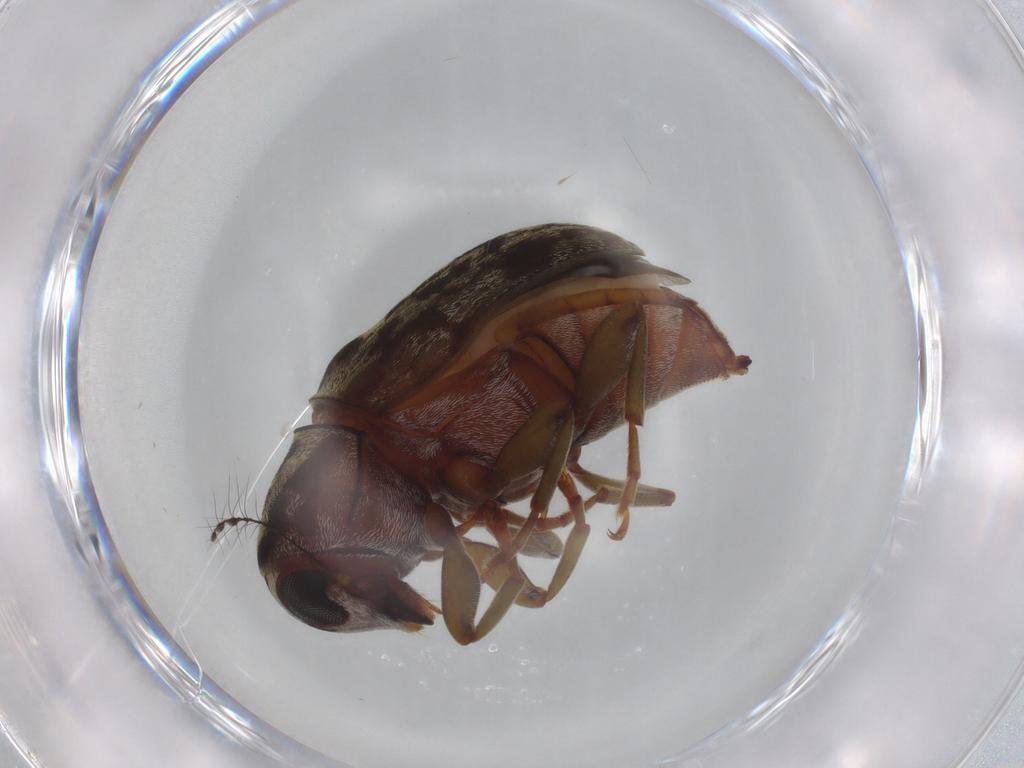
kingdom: Animalia
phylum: Arthropoda
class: Insecta
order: Coleoptera
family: Anthribidae
